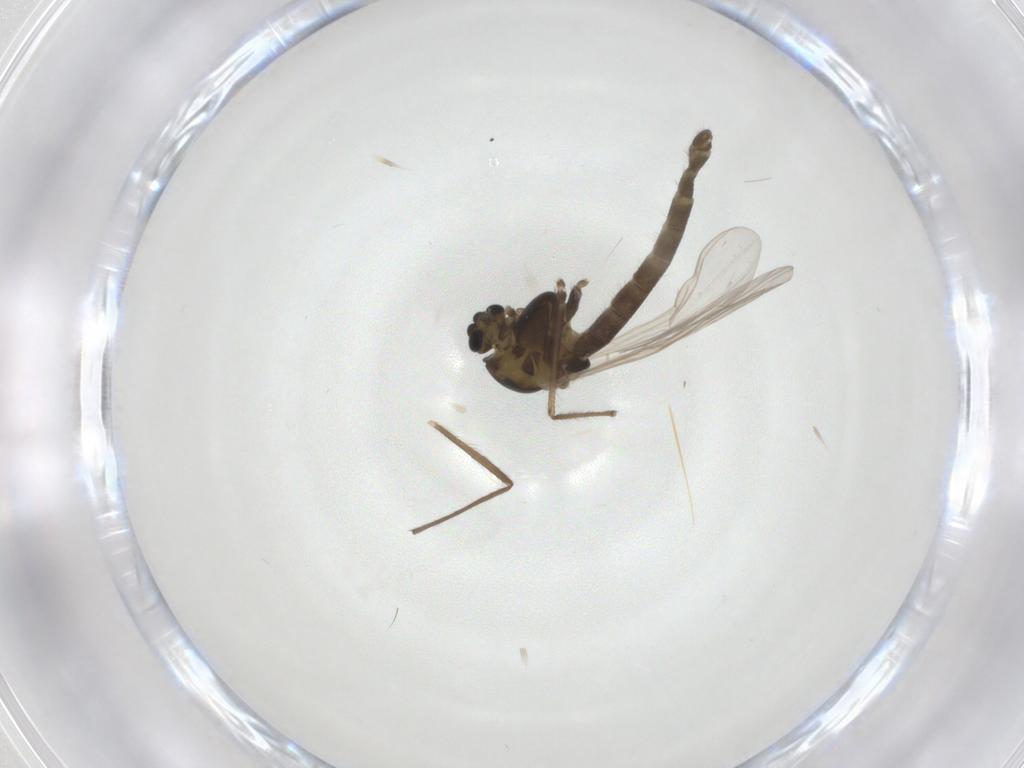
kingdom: Animalia
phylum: Arthropoda
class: Insecta
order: Diptera
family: Chironomidae
